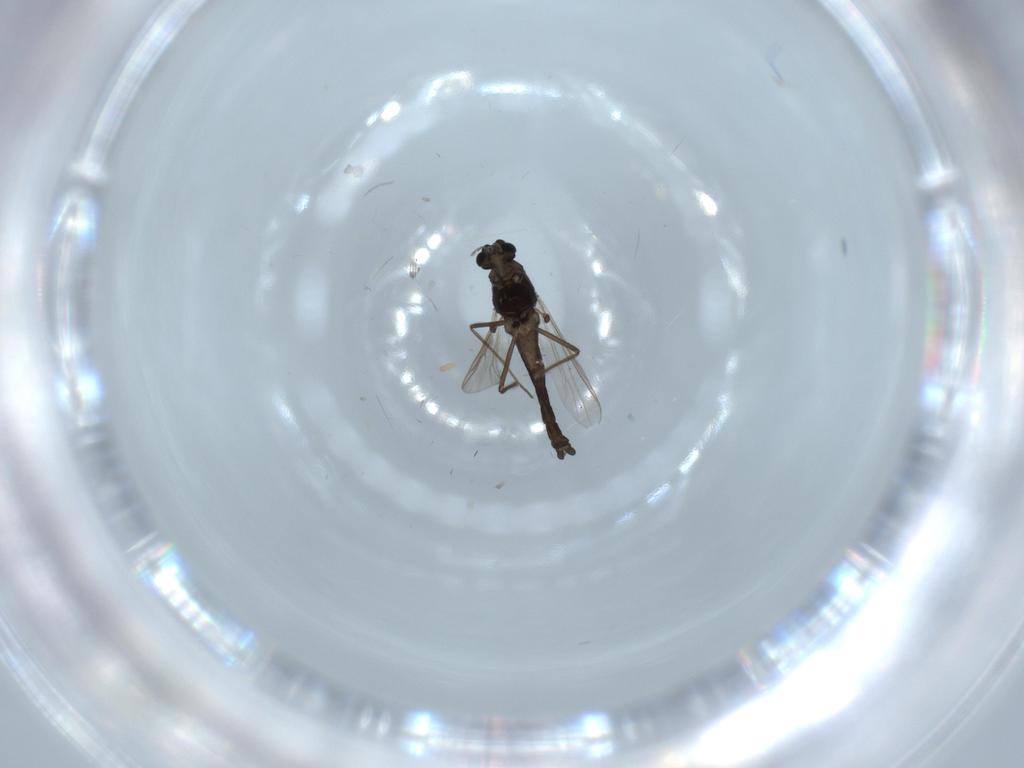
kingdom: Animalia
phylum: Arthropoda
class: Insecta
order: Diptera
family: Chironomidae
